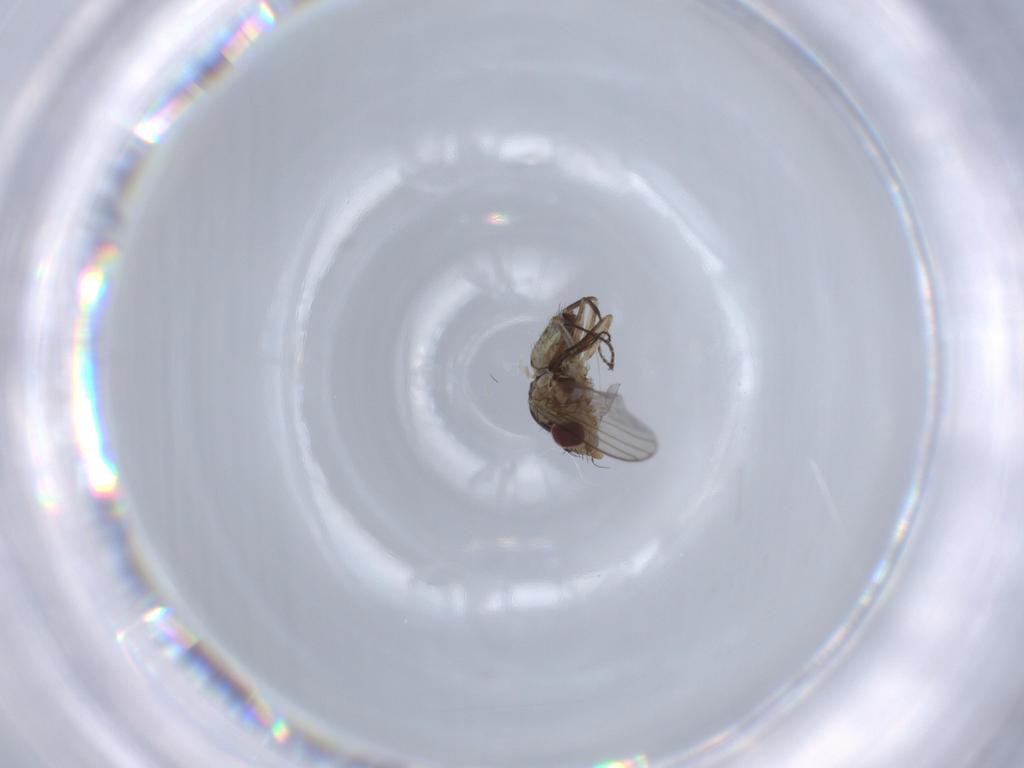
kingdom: Animalia
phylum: Arthropoda
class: Insecta
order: Diptera
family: Agromyzidae
